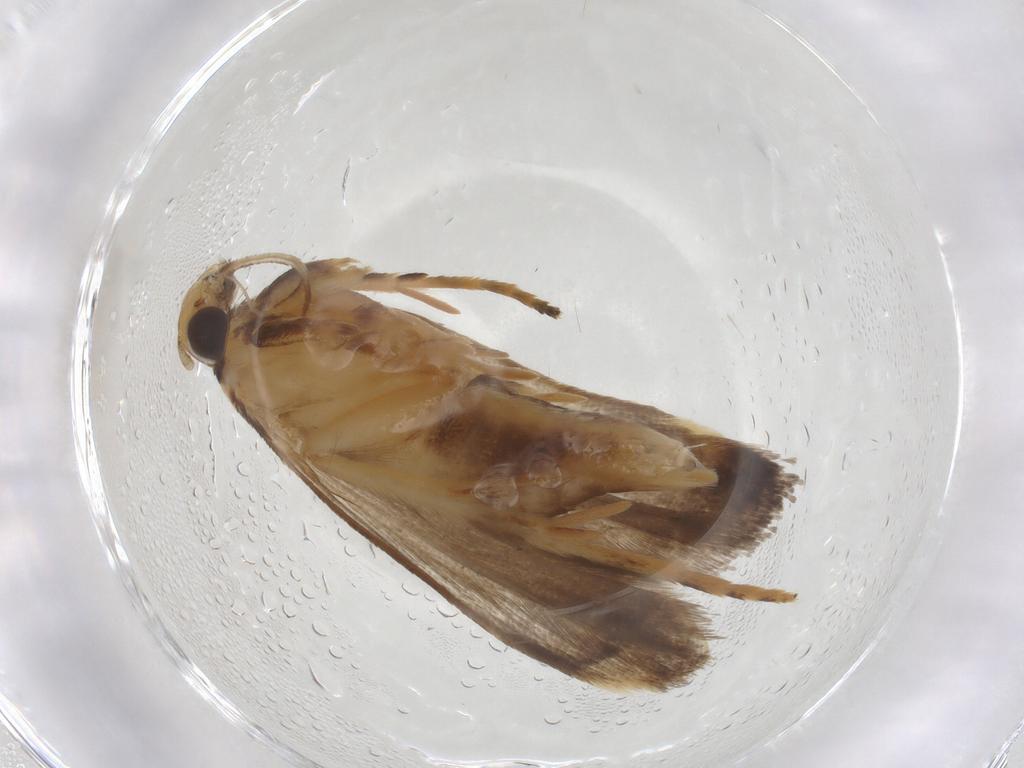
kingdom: Animalia
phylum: Arthropoda
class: Insecta
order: Lepidoptera
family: Gelechiidae
